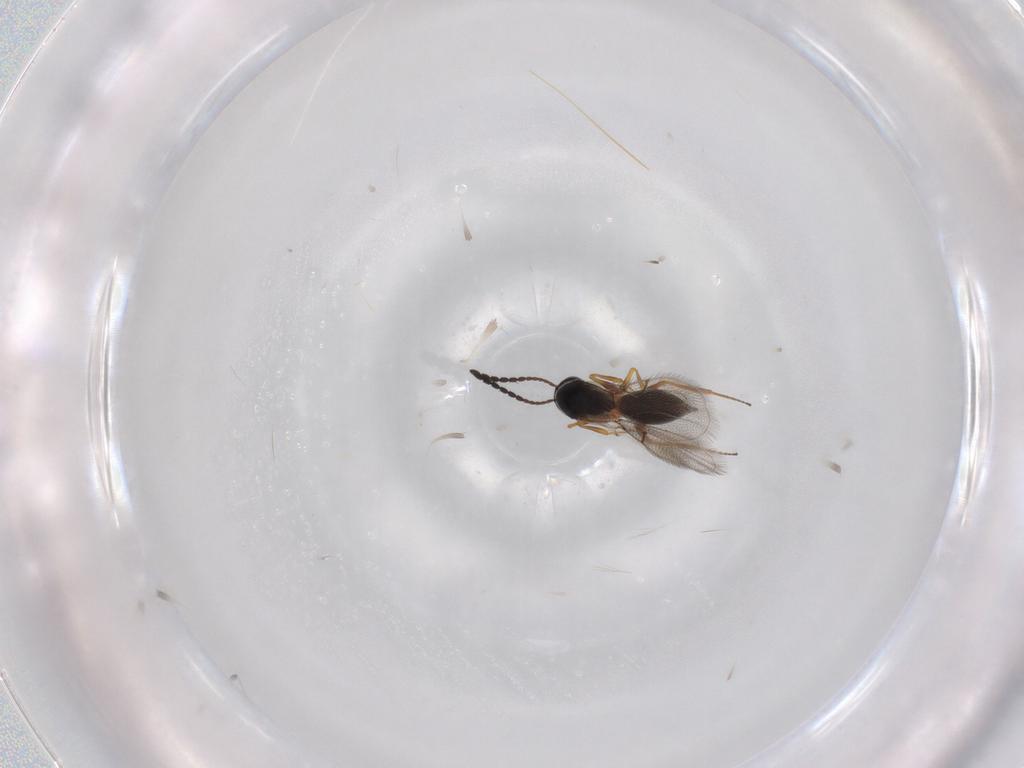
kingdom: Animalia
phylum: Arthropoda
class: Insecta
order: Hymenoptera
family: Figitidae
